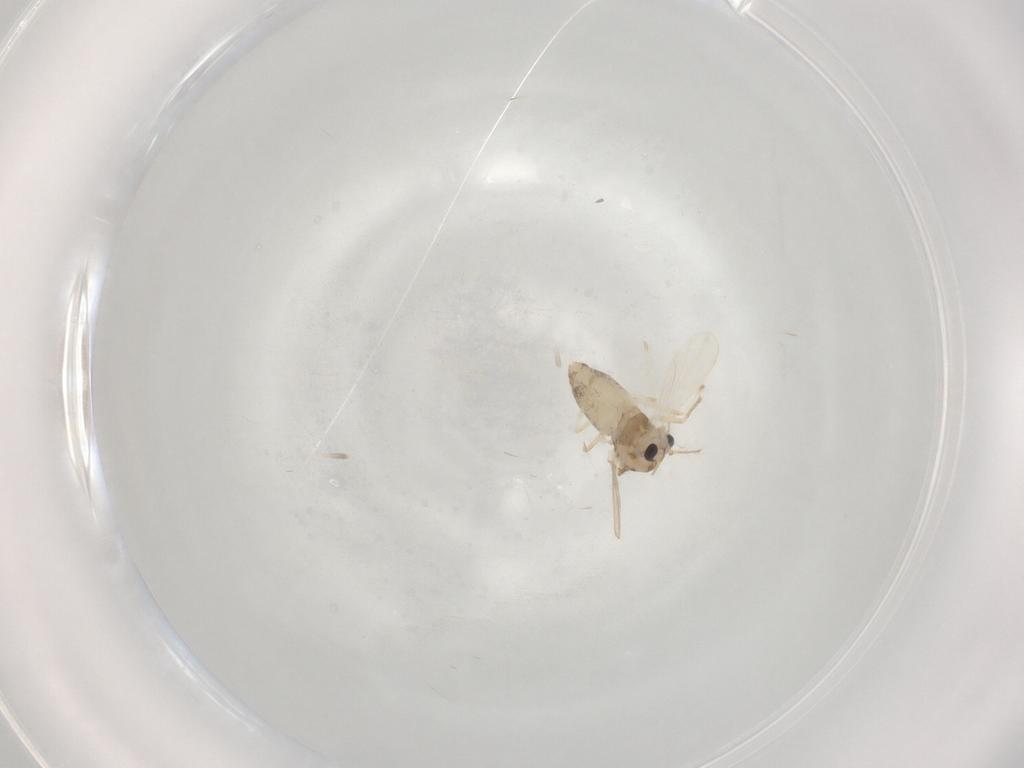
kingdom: Animalia
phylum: Arthropoda
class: Insecta
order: Diptera
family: Chironomidae
